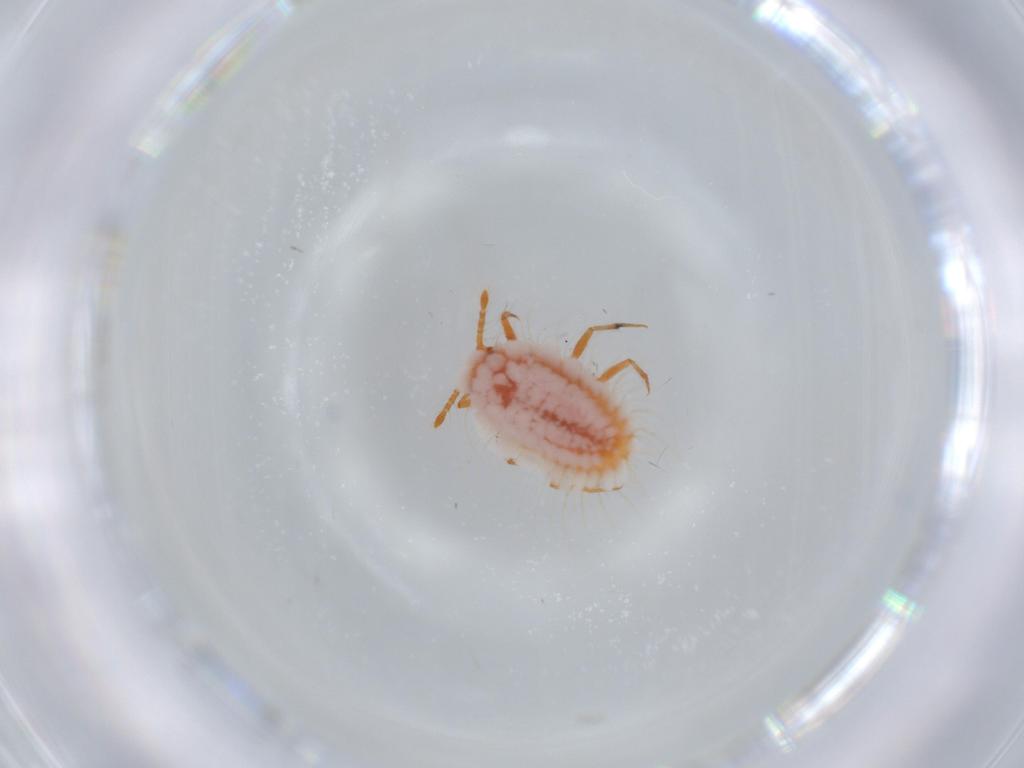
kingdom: Animalia
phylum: Arthropoda
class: Insecta
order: Hemiptera
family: Coccoidea_incertae_sedis
